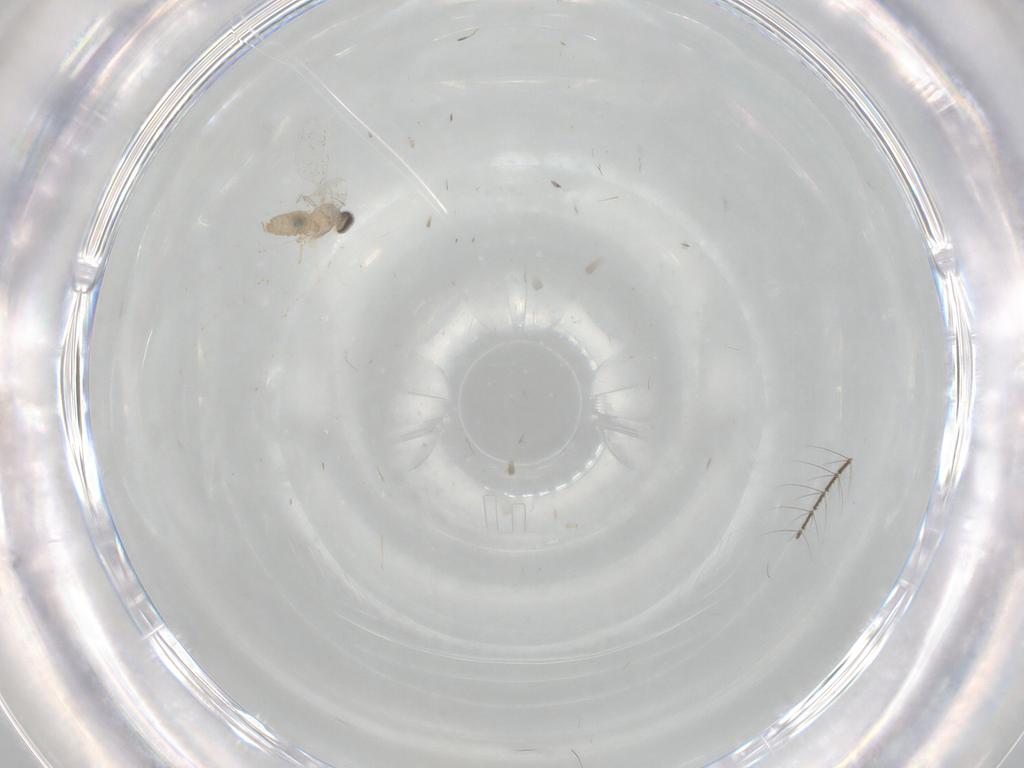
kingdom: Animalia
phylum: Arthropoda
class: Insecta
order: Diptera
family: Cecidomyiidae
